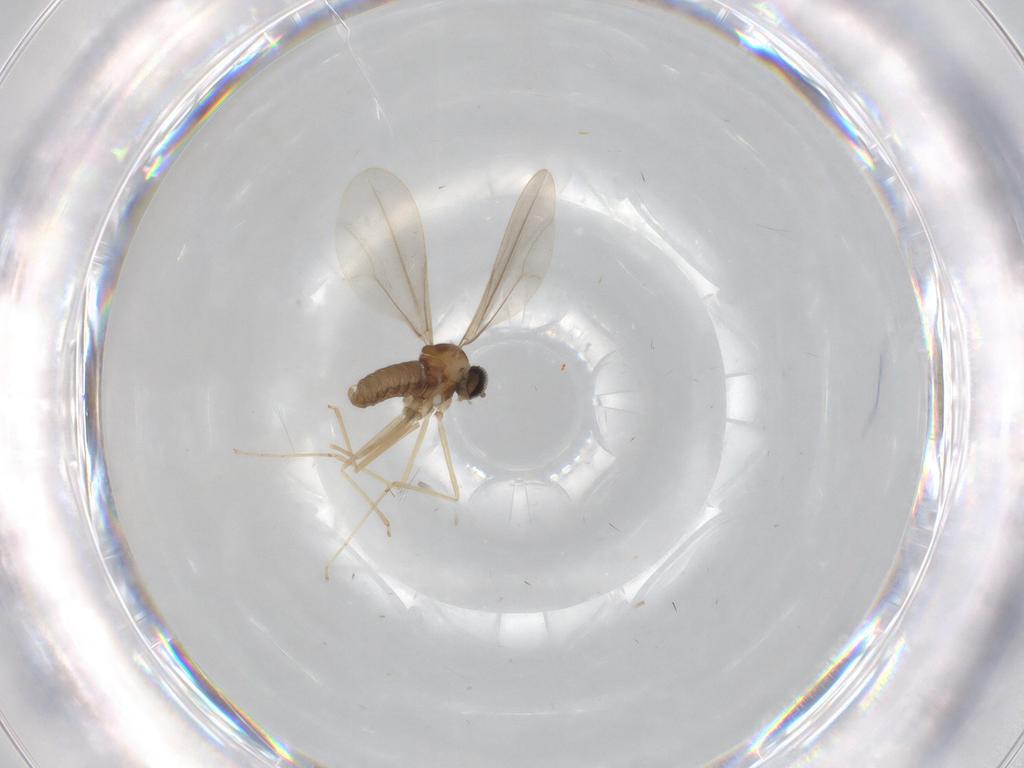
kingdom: Animalia
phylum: Arthropoda
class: Insecta
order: Diptera
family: Cecidomyiidae
